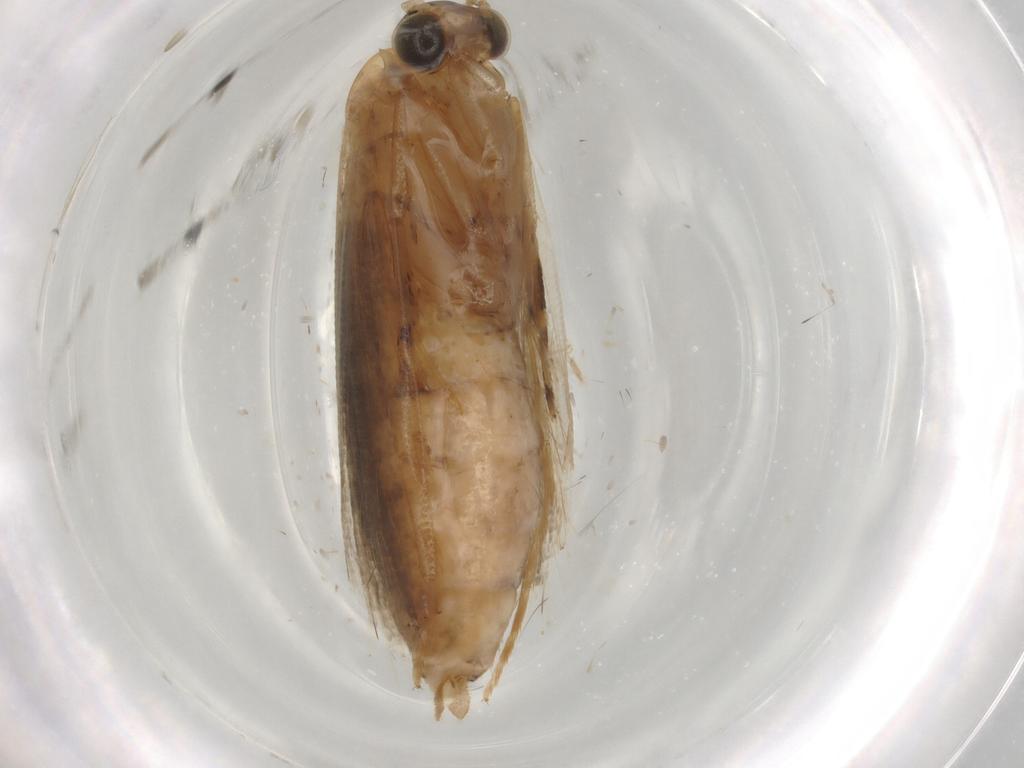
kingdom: Animalia
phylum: Arthropoda
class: Insecta
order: Lepidoptera
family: Tortricidae
